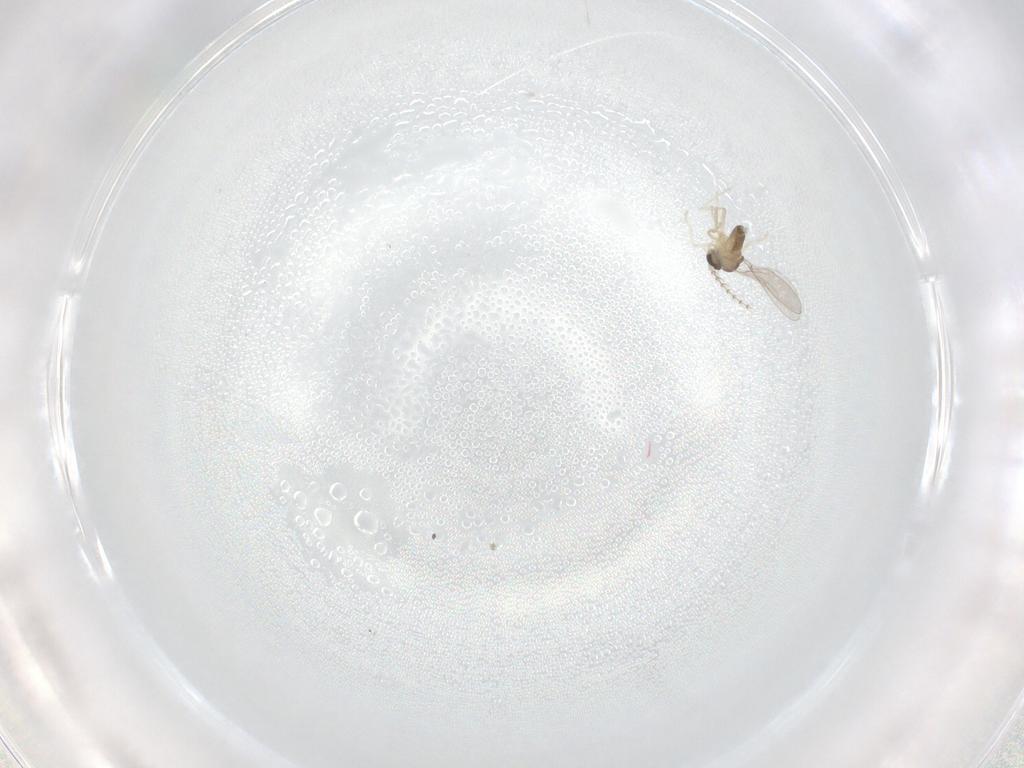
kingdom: Animalia
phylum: Arthropoda
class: Insecta
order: Diptera
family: Cecidomyiidae
